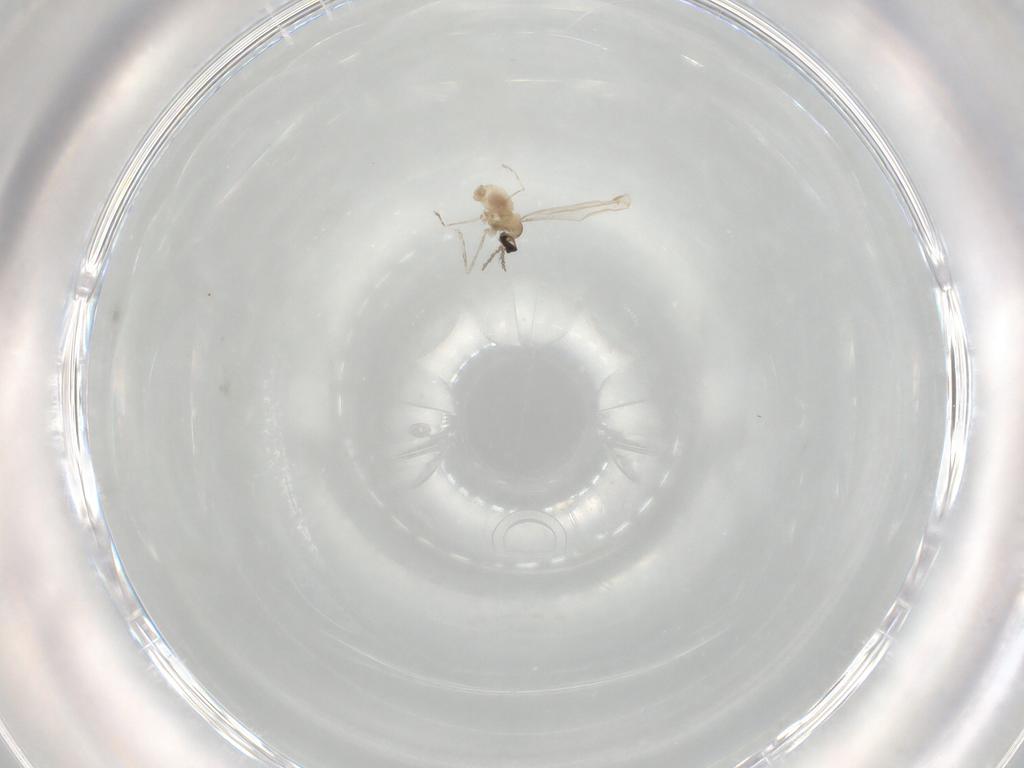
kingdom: Animalia
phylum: Arthropoda
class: Insecta
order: Diptera
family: Cecidomyiidae
